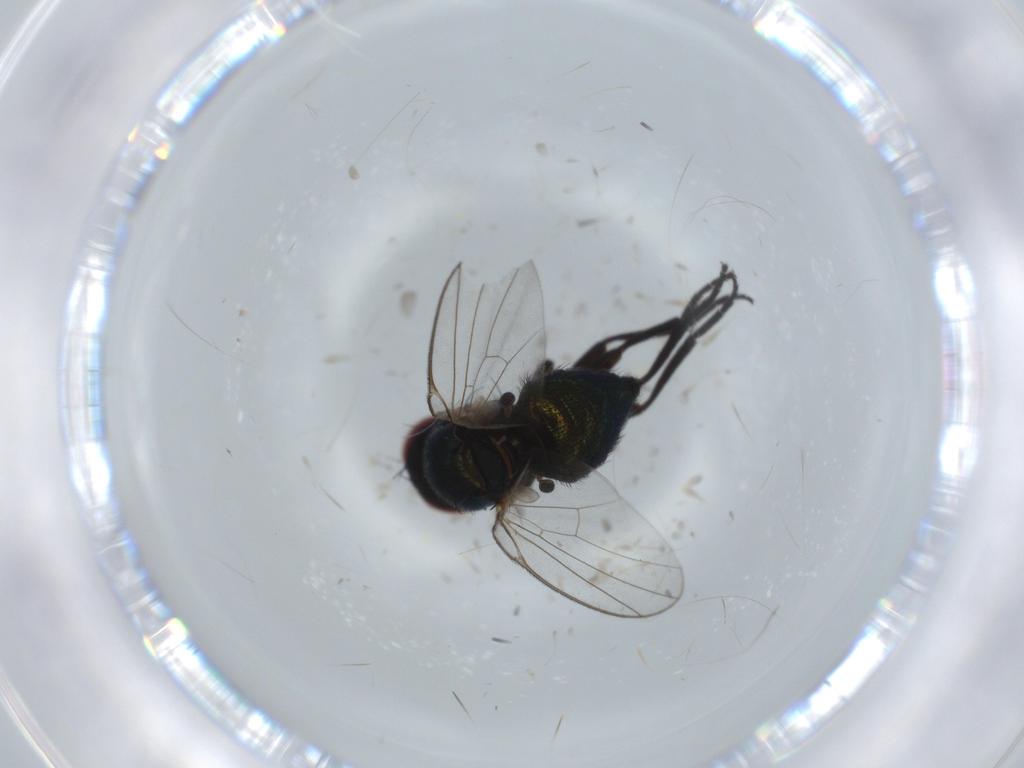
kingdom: Animalia
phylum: Arthropoda
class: Insecta
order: Diptera
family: Agromyzidae
